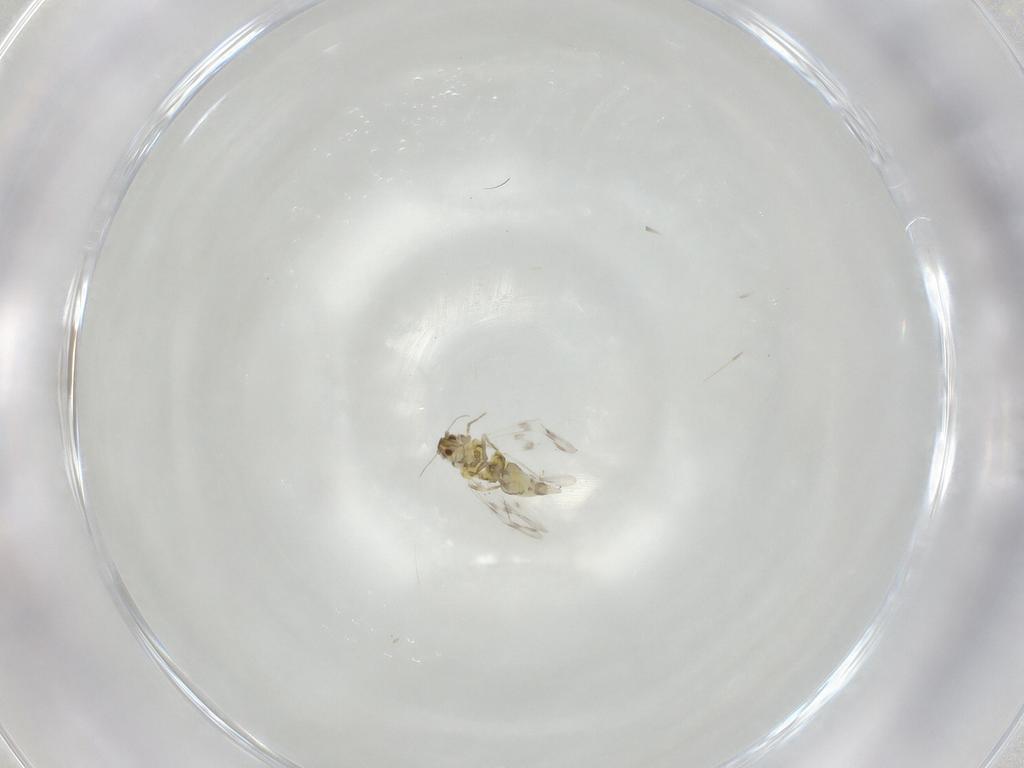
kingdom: Animalia
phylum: Arthropoda
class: Insecta
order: Hemiptera
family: Aleyrodidae
